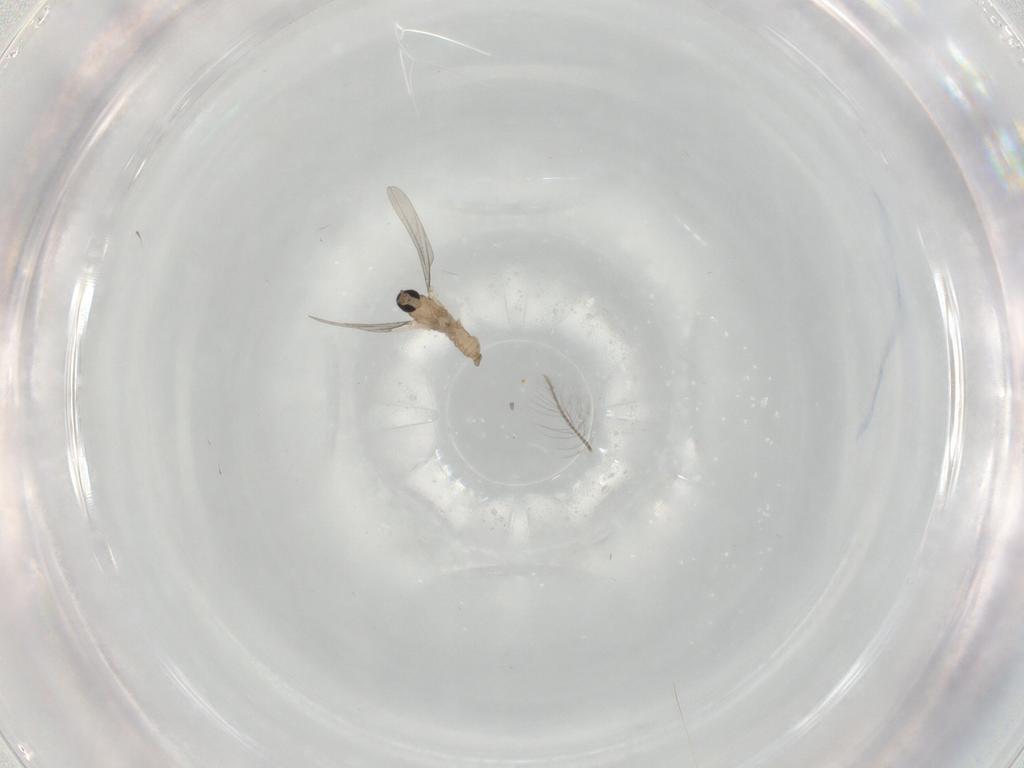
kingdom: Animalia
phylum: Arthropoda
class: Insecta
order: Diptera
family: Chironomidae
